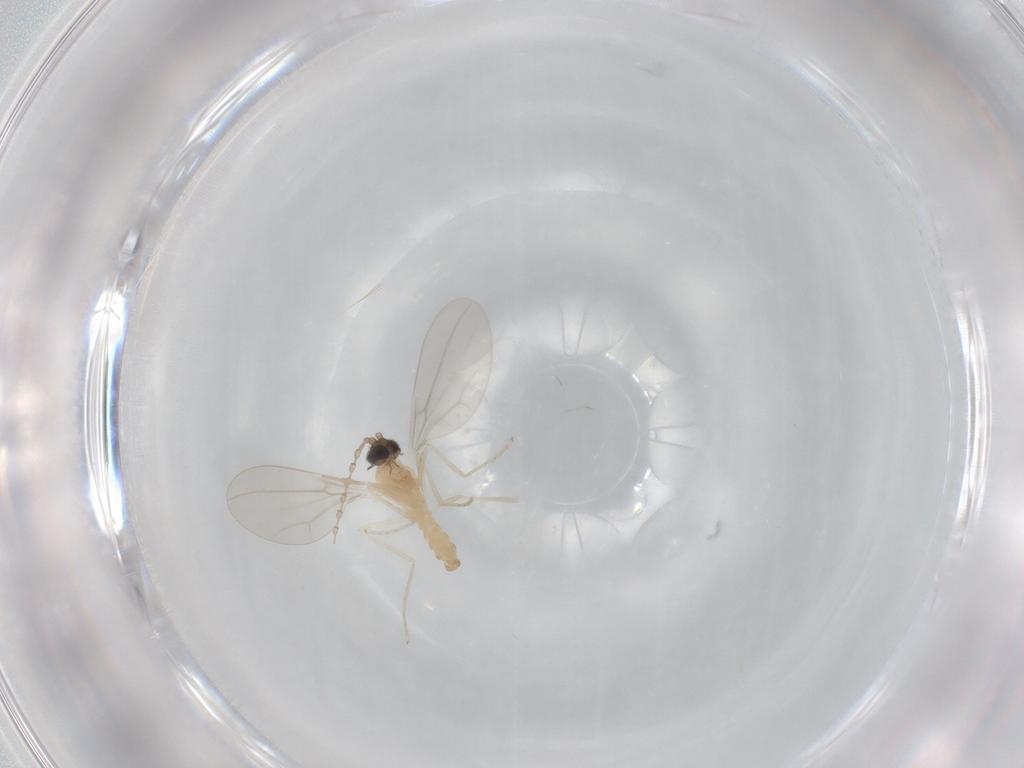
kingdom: Animalia
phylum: Arthropoda
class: Insecta
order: Diptera
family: Cecidomyiidae
